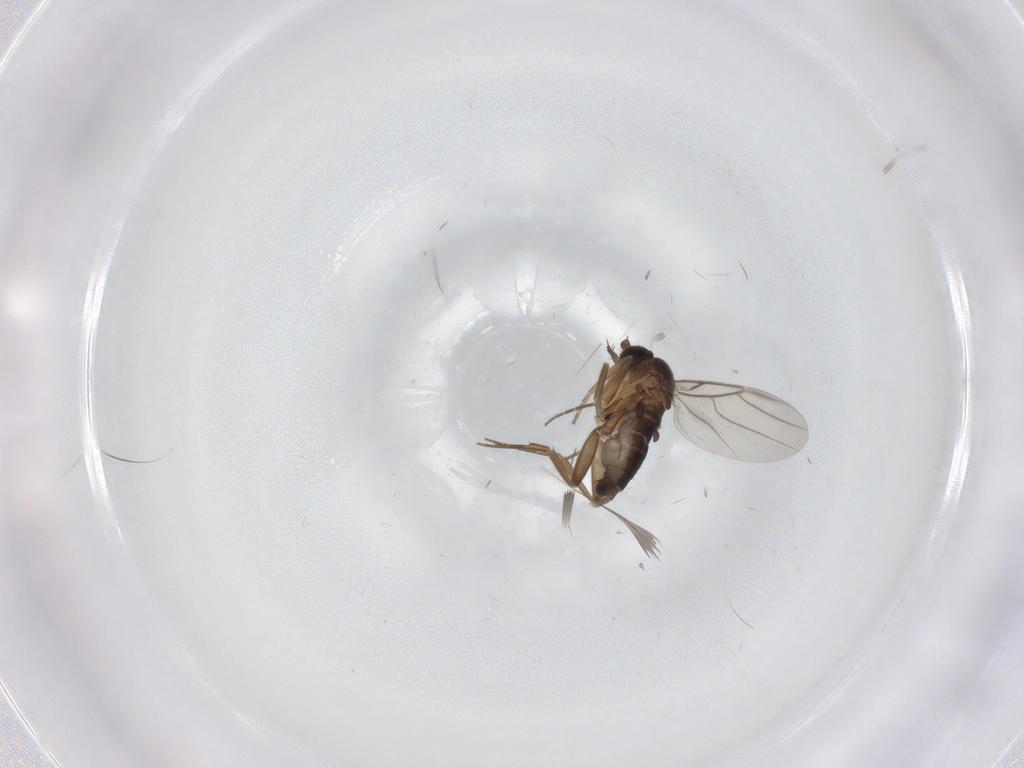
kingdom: Animalia
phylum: Arthropoda
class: Insecta
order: Diptera
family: Phoridae
